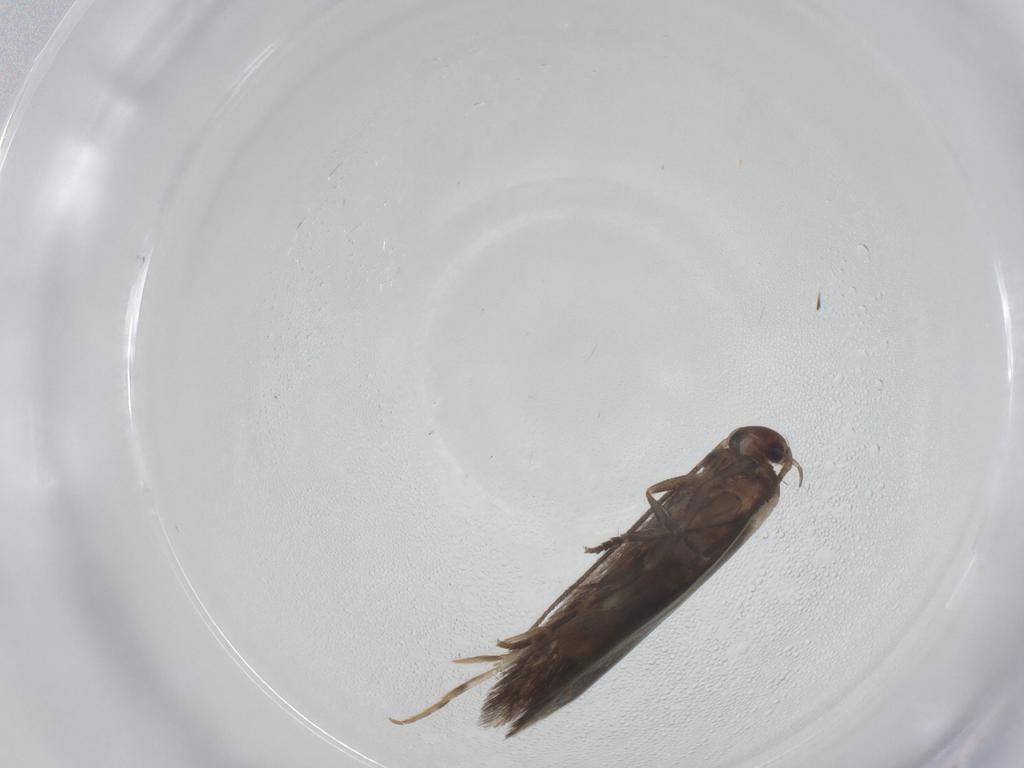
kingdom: Animalia
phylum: Arthropoda
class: Insecta
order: Lepidoptera
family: Elachistidae
